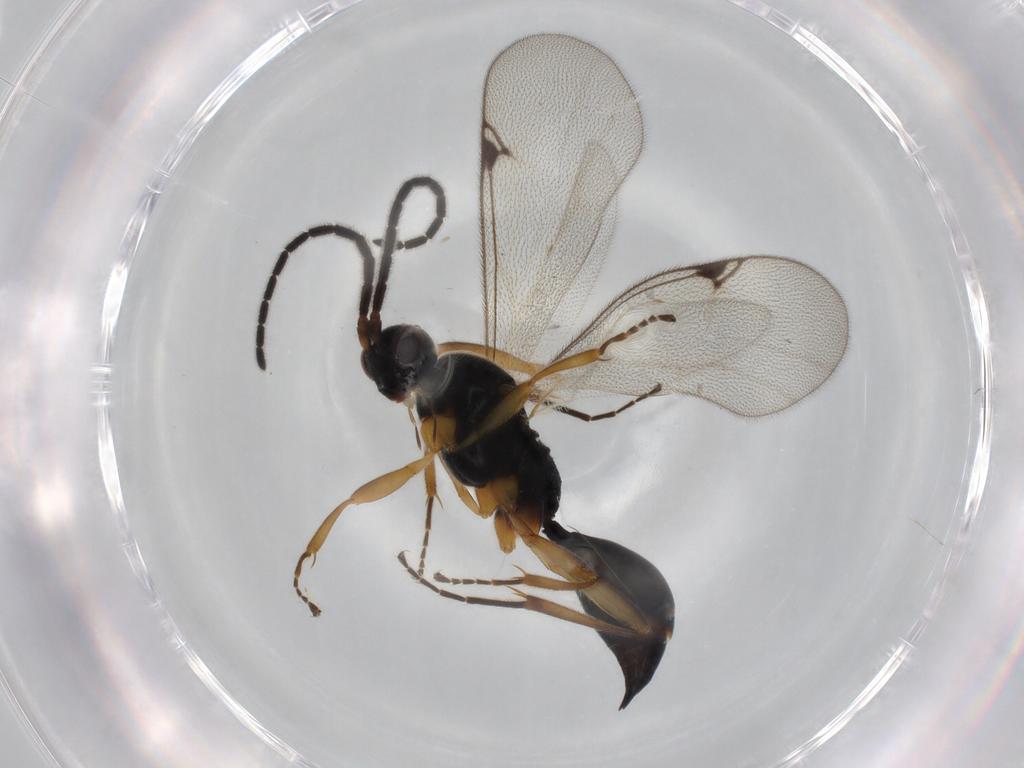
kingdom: Animalia
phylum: Arthropoda
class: Insecta
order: Hymenoptera
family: Proctotrupidae
